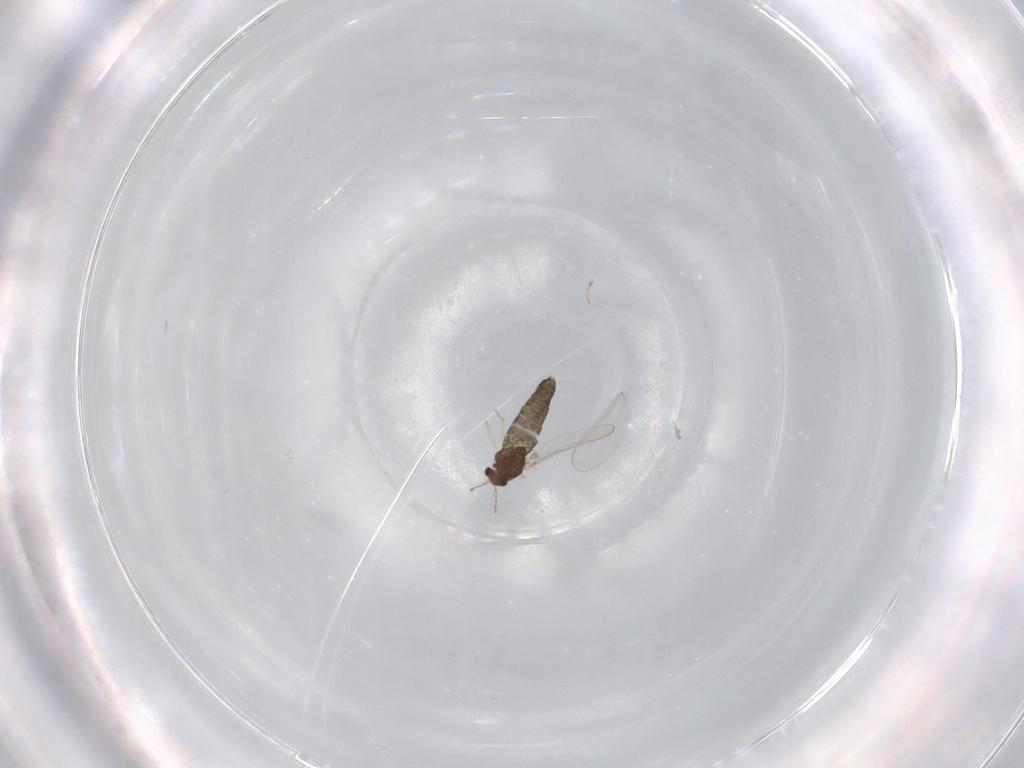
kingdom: Animalia
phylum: Arthropoda
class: Insecta
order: Diptera
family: Chironomidae
